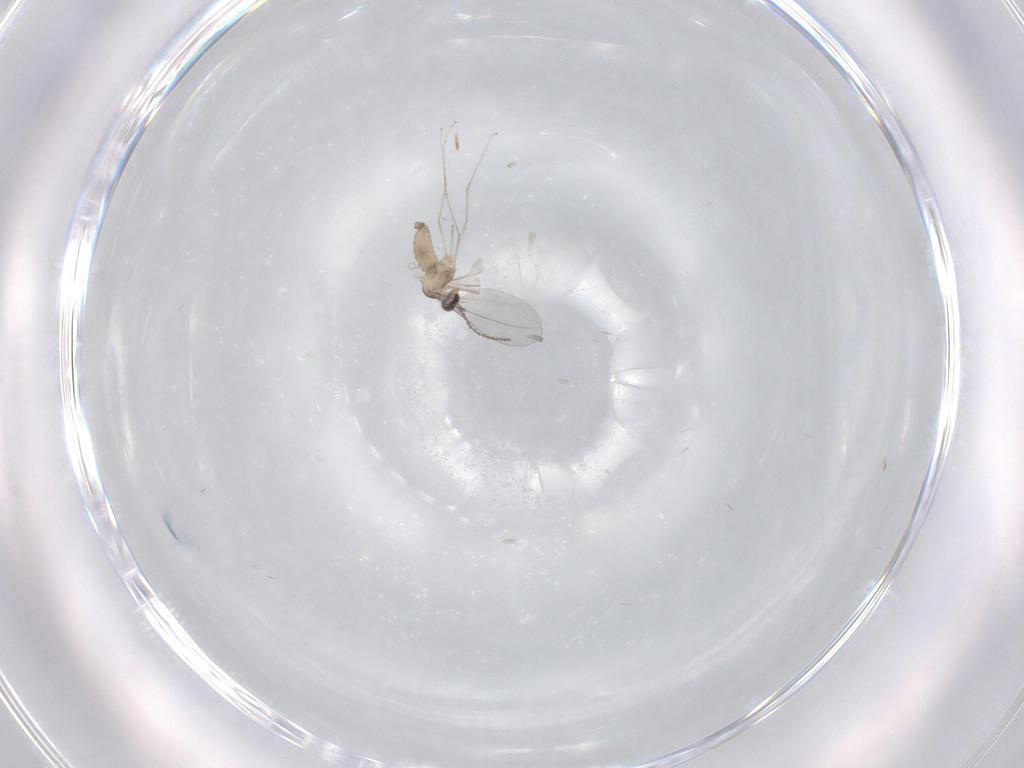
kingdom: Animalia
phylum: Arthropoda
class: Insecta
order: Diptera
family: Cecidomyiidae
